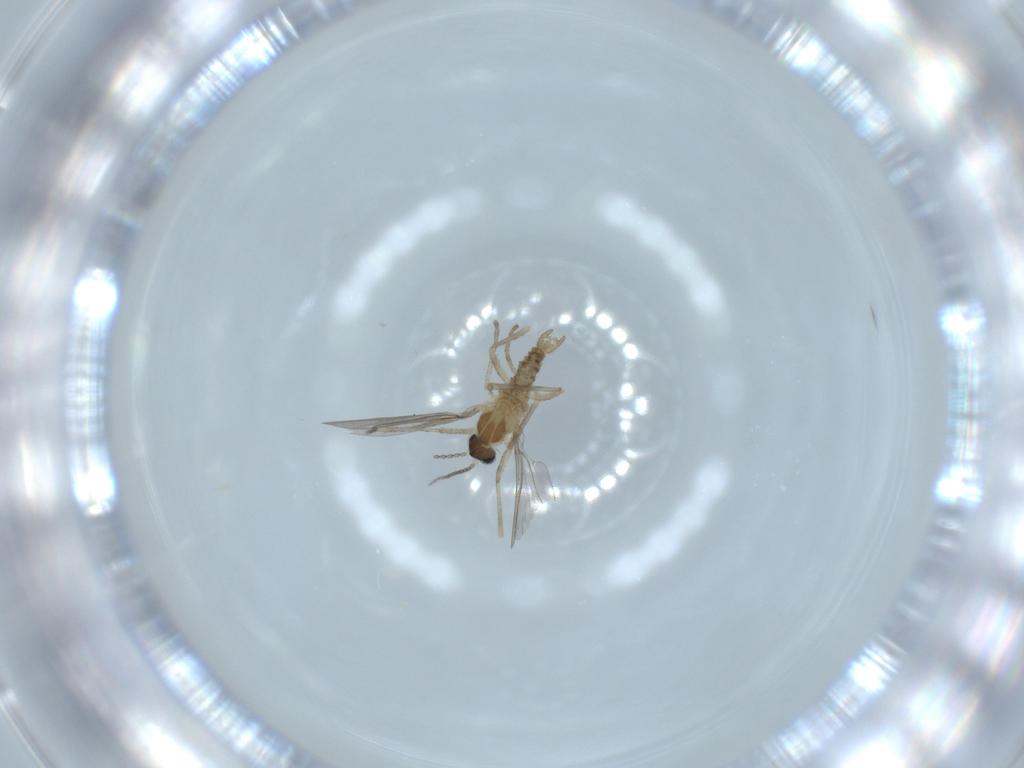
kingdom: Animalia
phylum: Arthropoda
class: Insecta
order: Diptera
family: Cecidomyiidae
